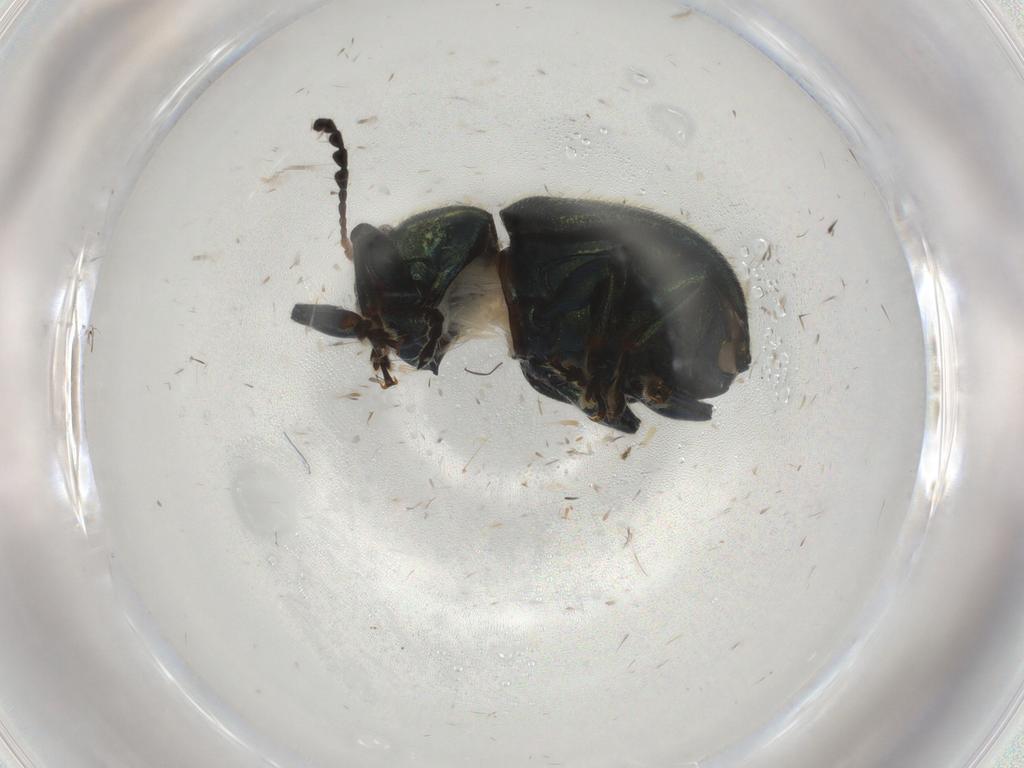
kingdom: Animalia
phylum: Arthropoda
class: Insecta
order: Coleoptera
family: Chrysomelidae
